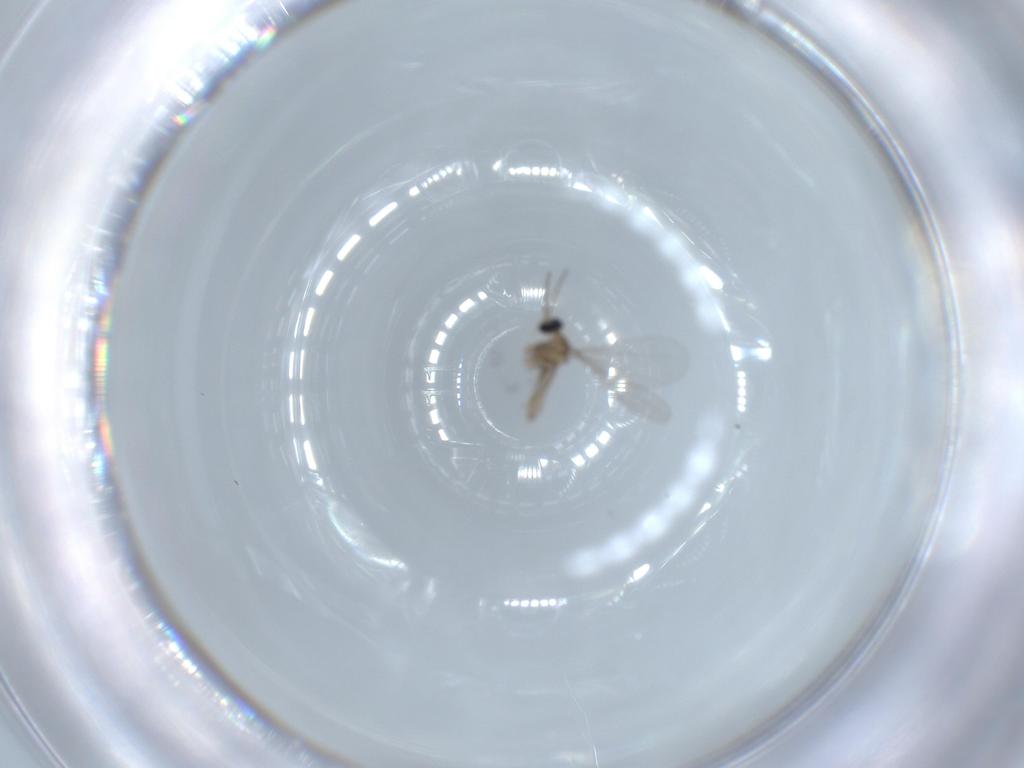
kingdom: Animalia
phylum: Arthropoda
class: Insecta
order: Diptera
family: Cecidomyiidae
